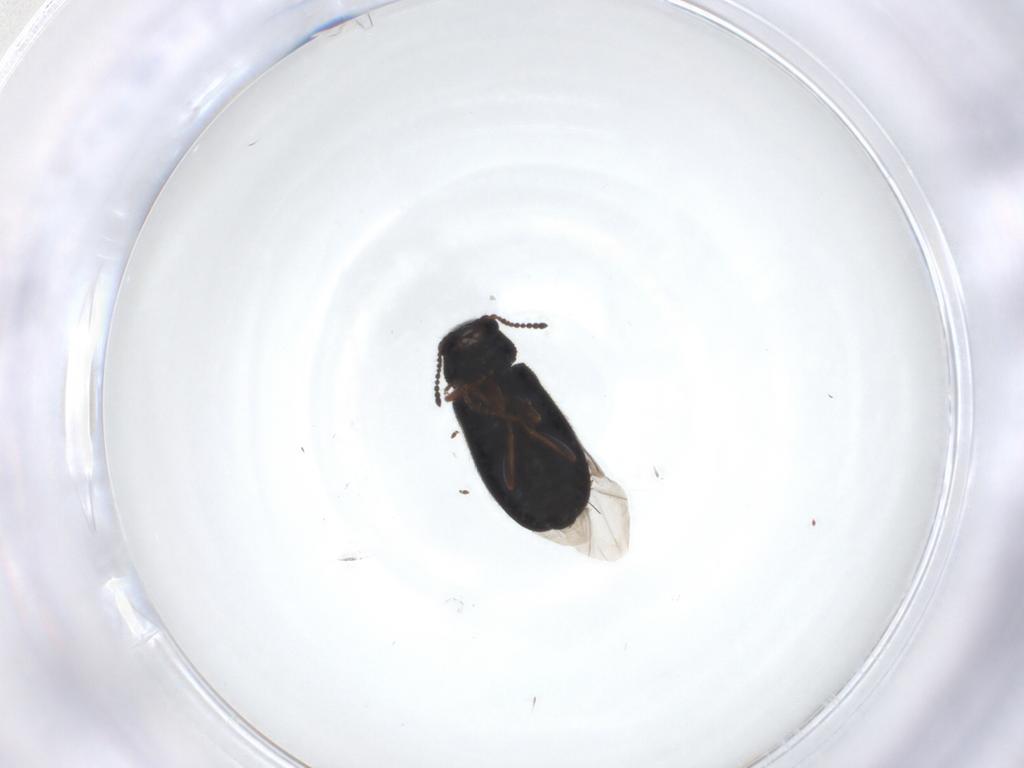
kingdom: Animalia
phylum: Arthropoda
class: Insecta
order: Coleoptera
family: Melyridae
